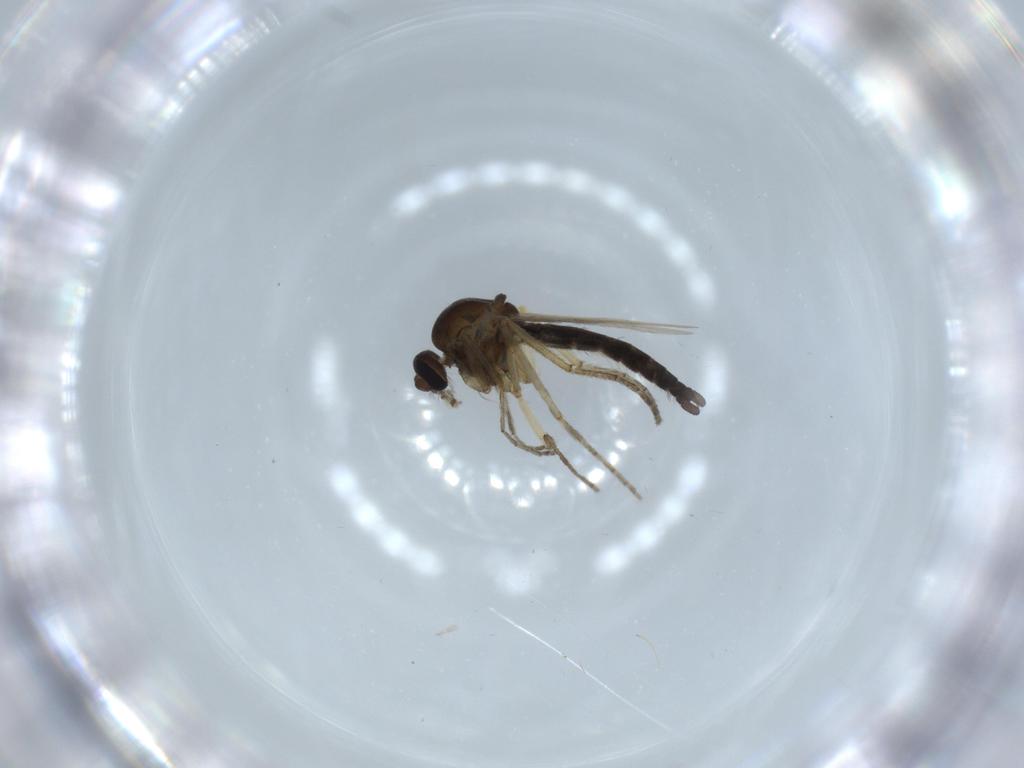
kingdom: Animalia
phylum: Arthropoda
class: Insecta
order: Diptera
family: Ceratopogonidae
